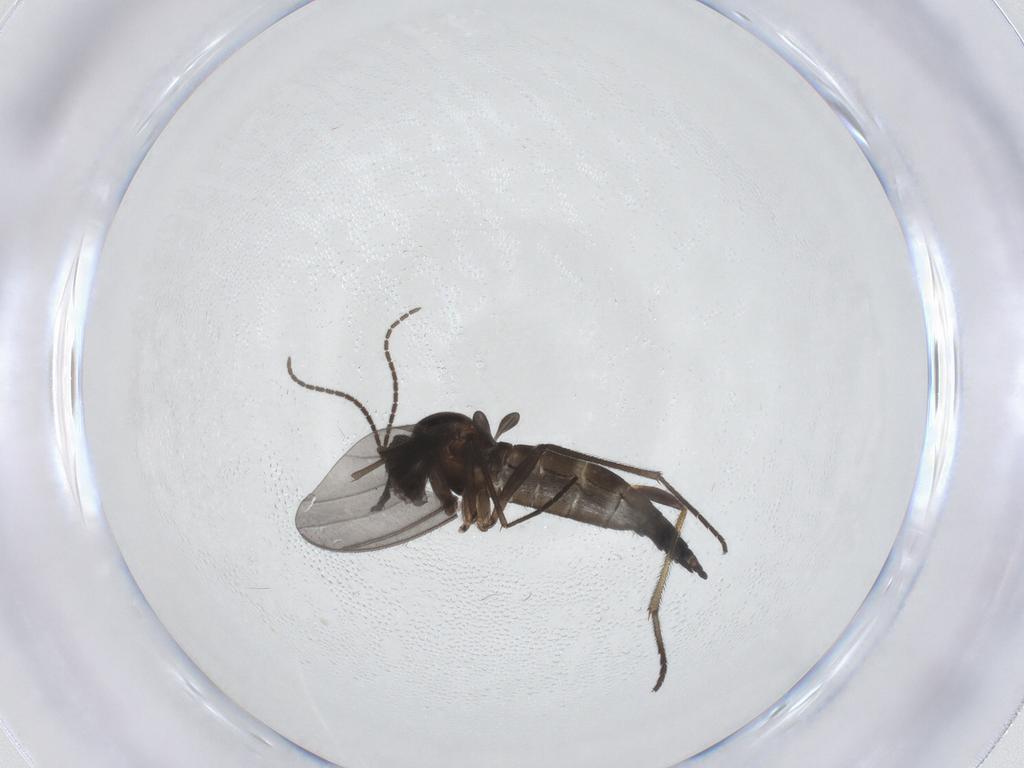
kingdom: Animalia
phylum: Arthropoda
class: Insecta
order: Diptera
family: Sciaridae
